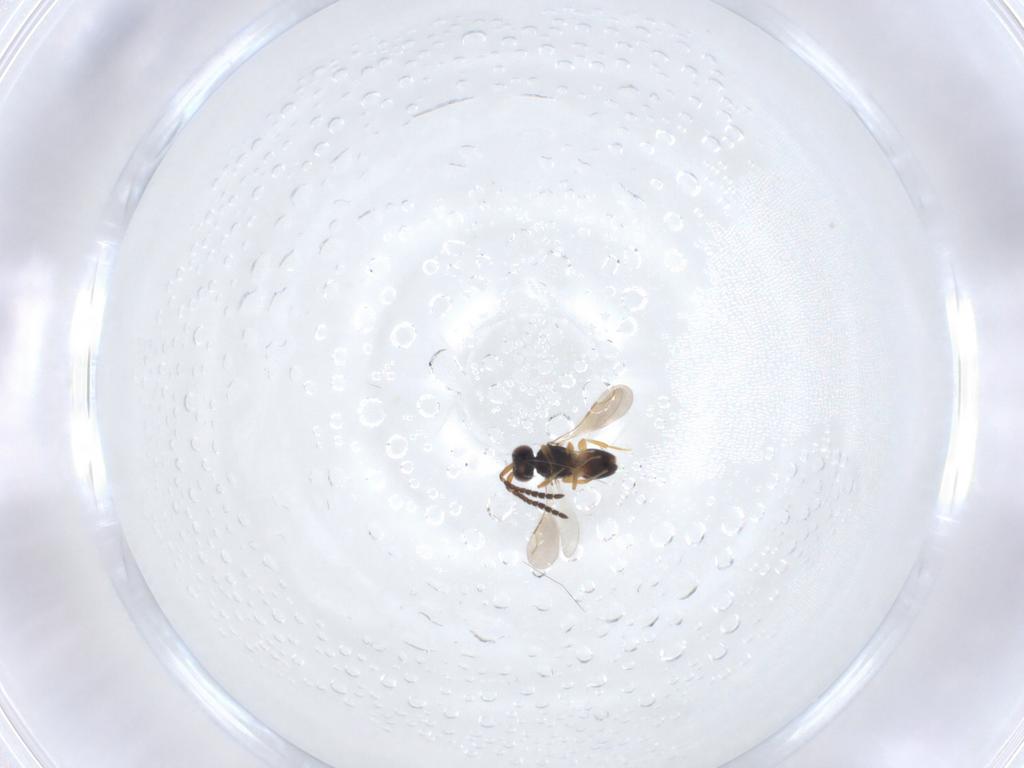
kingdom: Animalia
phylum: Arthropoda
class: Insecta
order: Hymenoptera
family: Ceraphronidae
